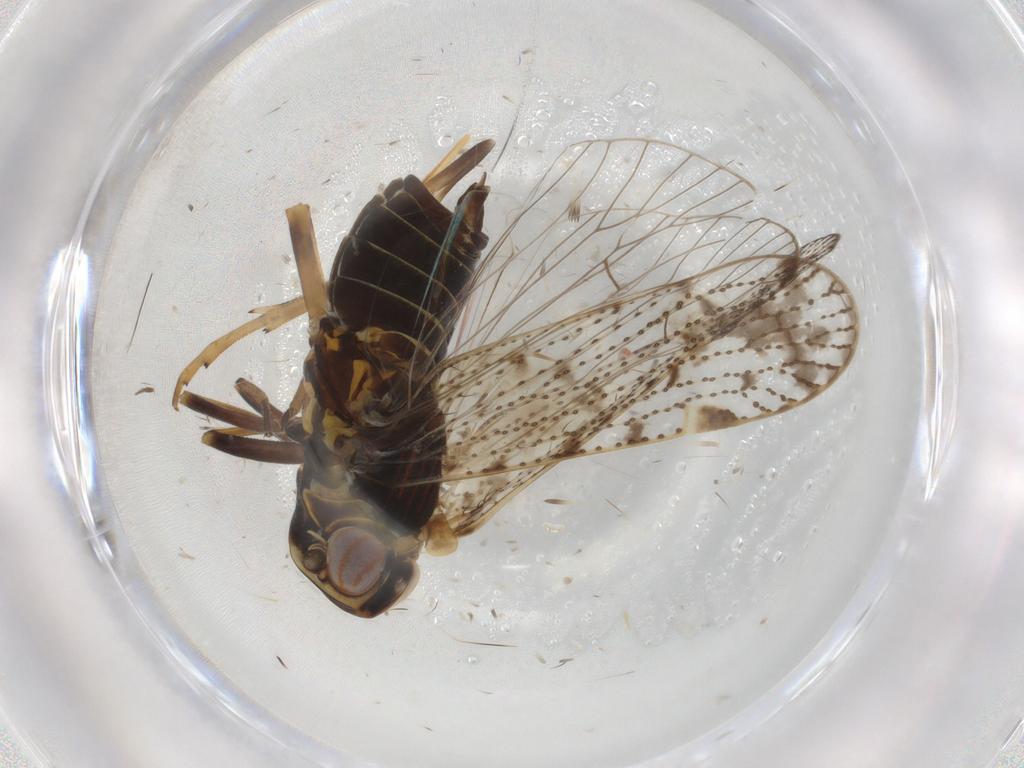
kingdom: Animalia
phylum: Arthropoda
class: Insecta
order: Hemiptera
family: Cixiidae
